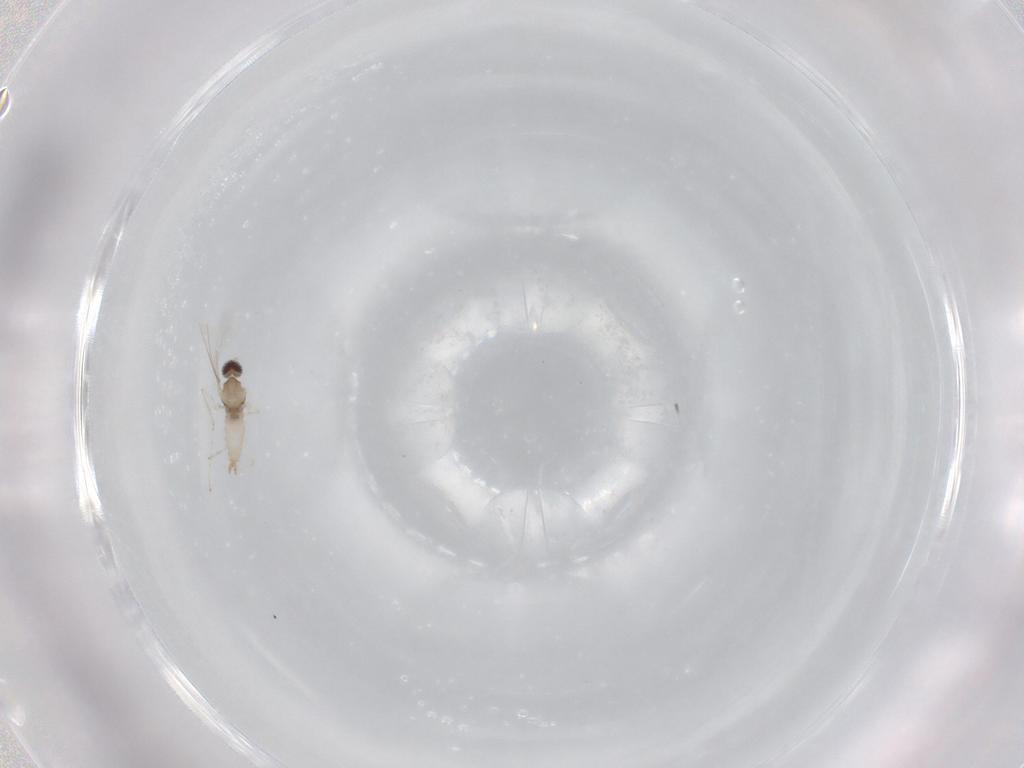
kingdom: Animalia
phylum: Arthropoda
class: Insecta
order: Diptera
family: Cecidomyiidae
